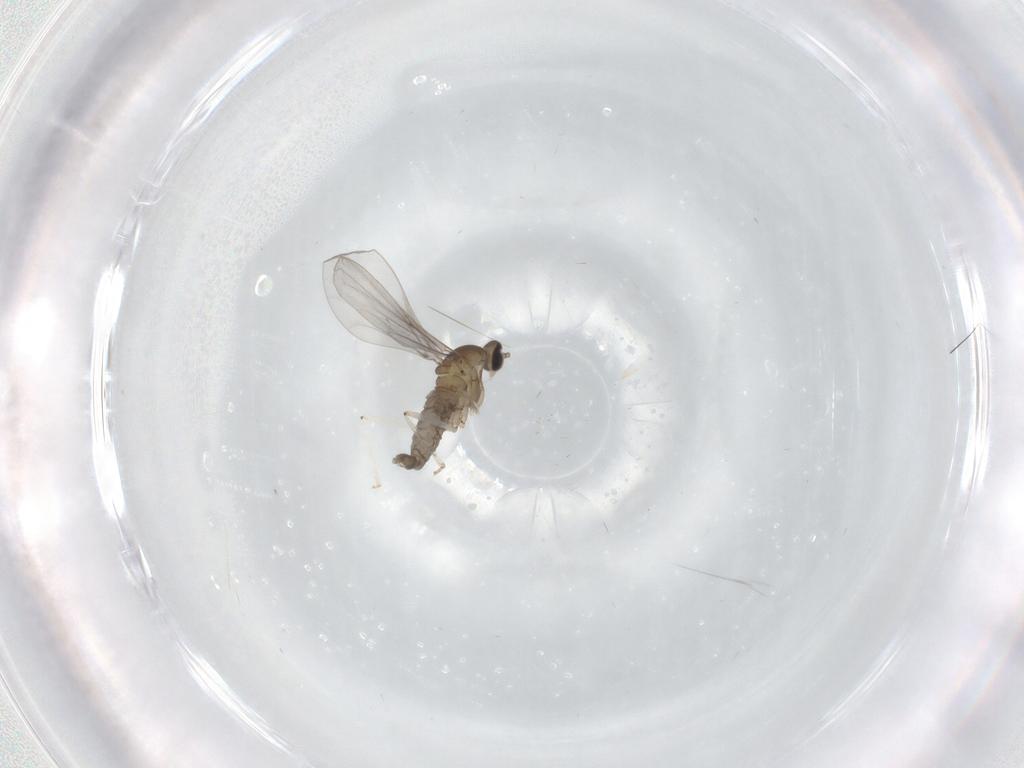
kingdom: Animalia
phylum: Arthropoda
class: Insecta
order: Diptera
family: Cecidomyiidae
